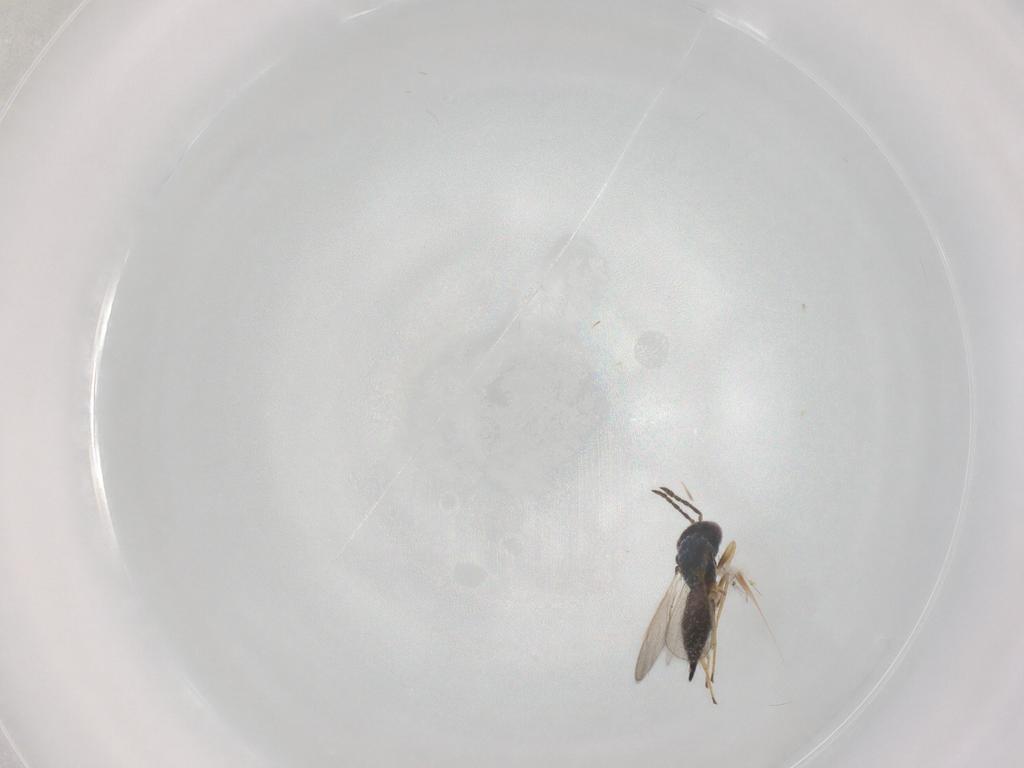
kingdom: Animalia
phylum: Arthropoda
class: Insecta
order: Hymenoptera
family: Eulophidae
